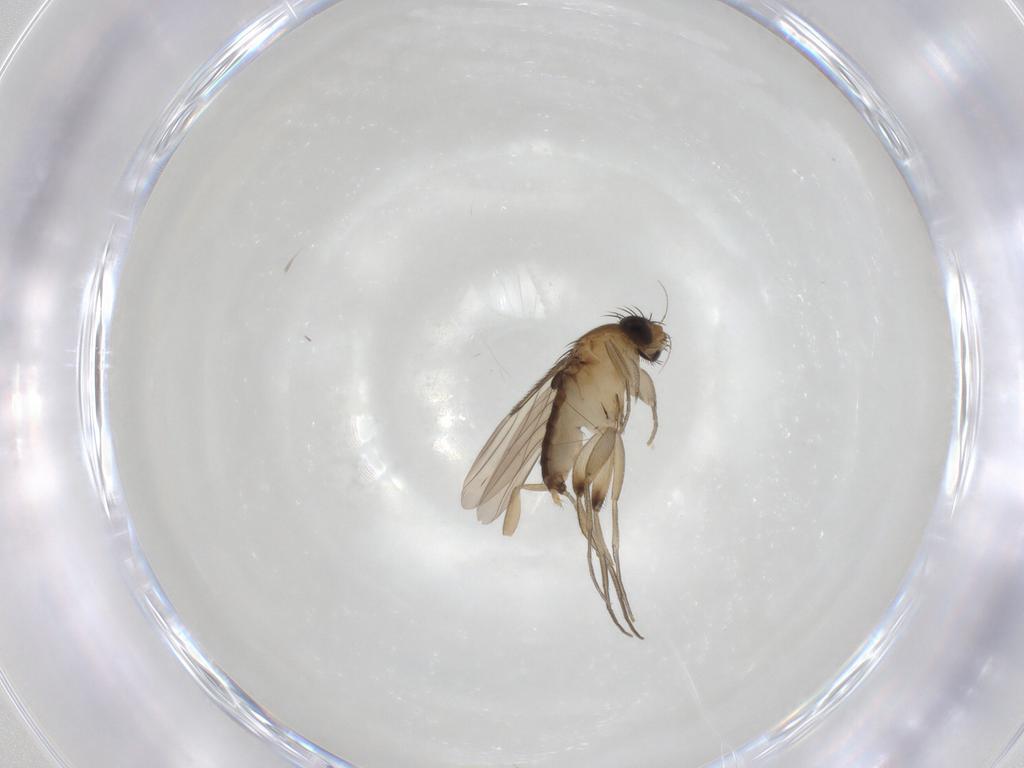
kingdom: Animalia
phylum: Arthropoda
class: Insecta
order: Diptera
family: Phoridae
